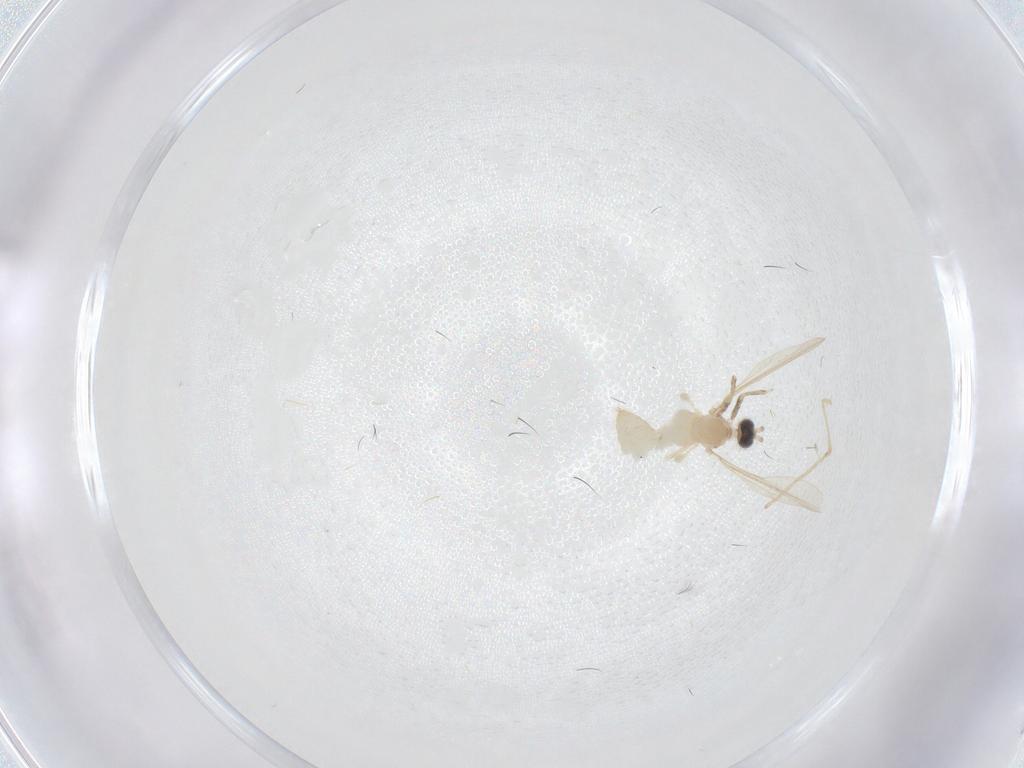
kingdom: Animalia
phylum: Arthropoda
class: Insecta
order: Diptera
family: Cecidomyiidae
